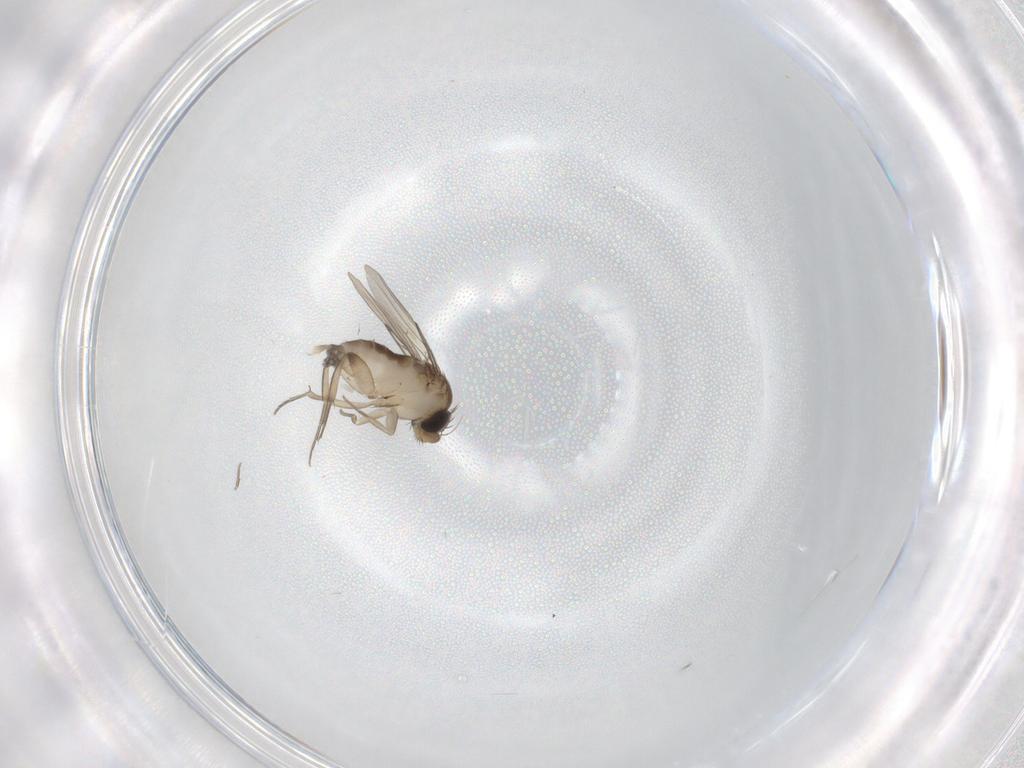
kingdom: Animalia
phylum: Arthropoda
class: Insecta
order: Diptera
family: Phoridae
